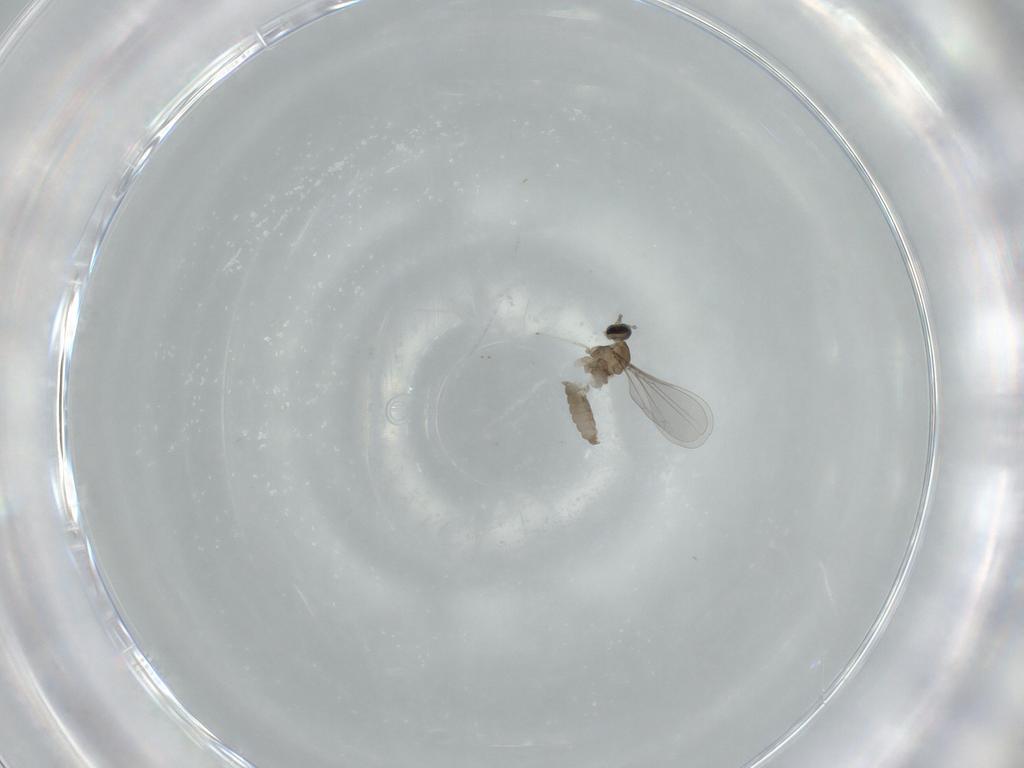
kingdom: Animalia
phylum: Arthropoda
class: Insecta
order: Diptera
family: Cecidomyiidae
